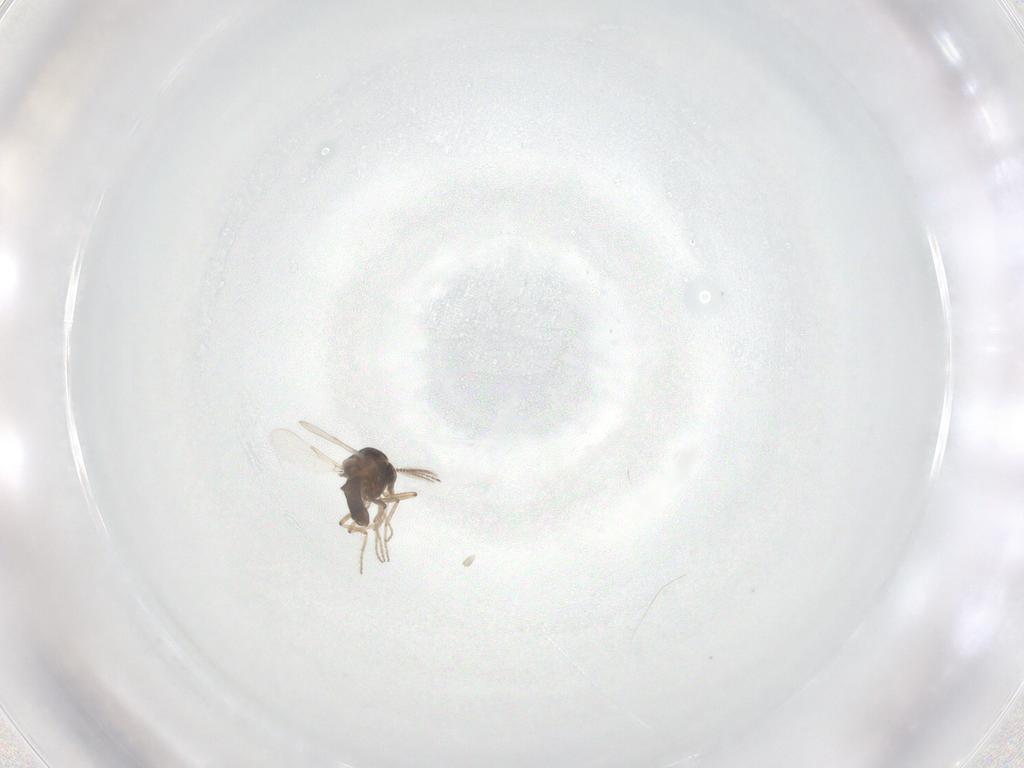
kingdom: Animalia
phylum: Arthropoda
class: Insecta
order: Diptera
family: Ceratopogonidae
